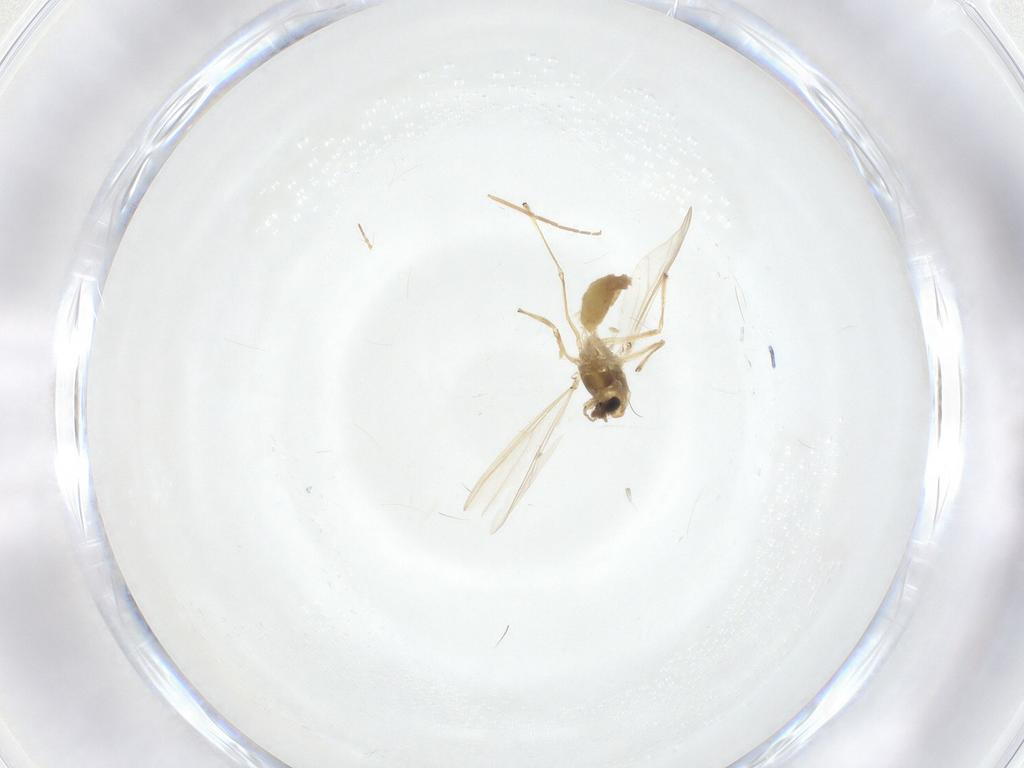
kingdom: Animalia
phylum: Arthropoda
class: Insecta
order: Diptera
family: Chironomidae
